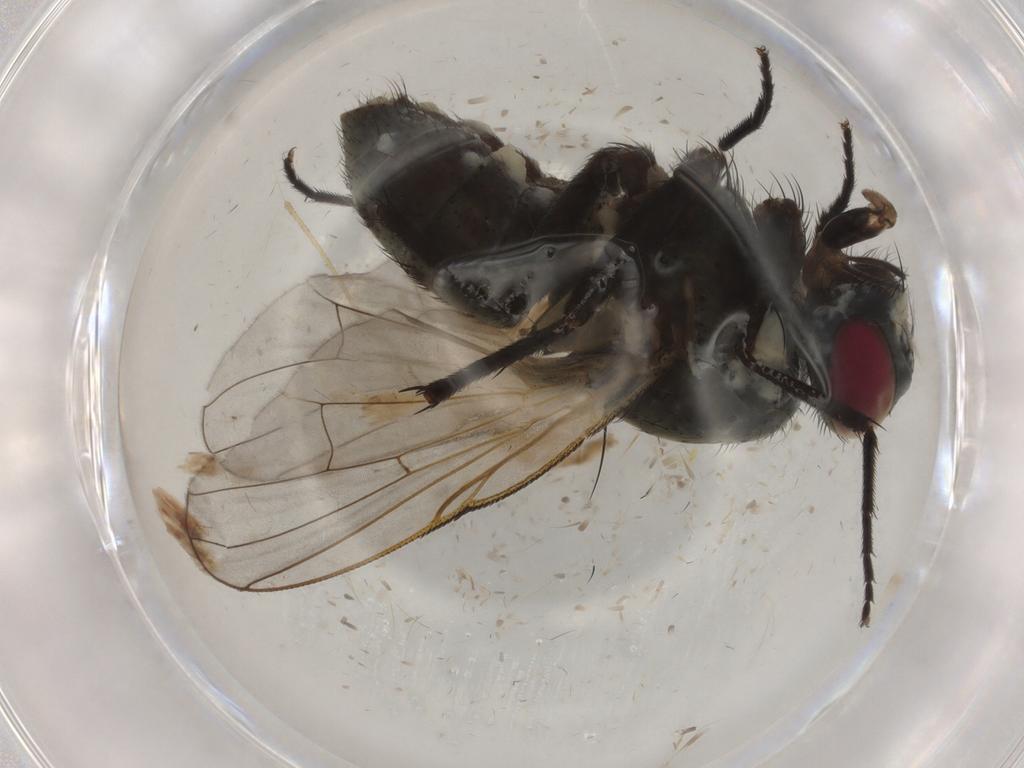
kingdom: Animalia
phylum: Arthropoda
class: Insecta
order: Diptera
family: Muscidae
